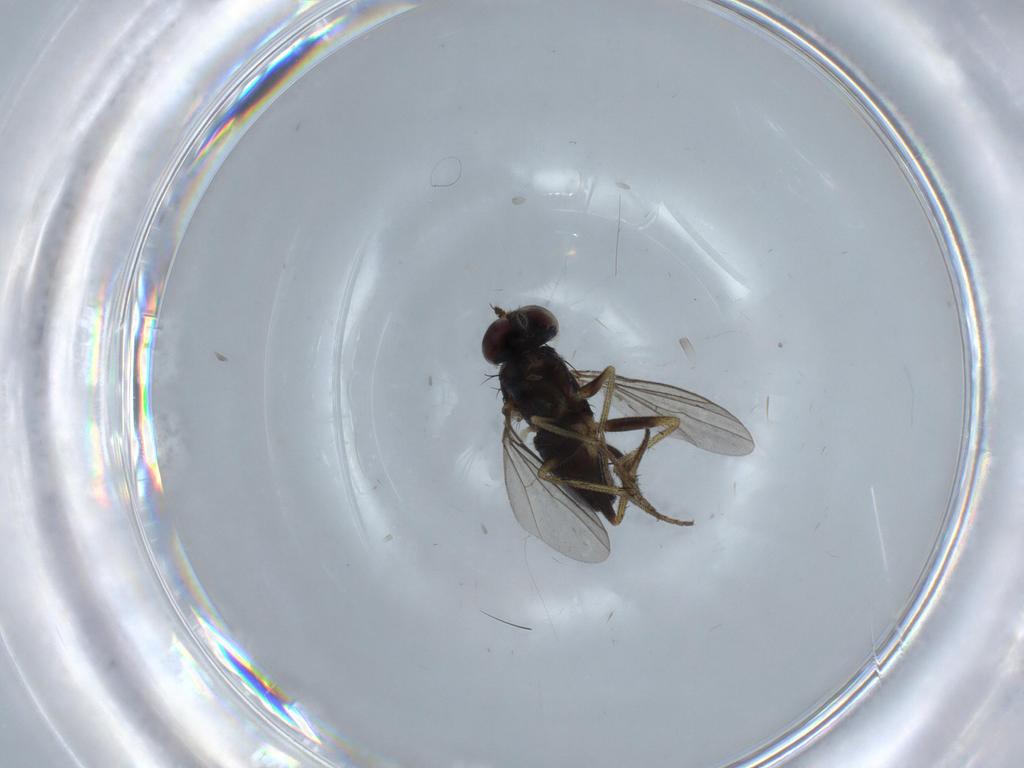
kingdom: Animalia
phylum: Arthropoda
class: Insecta
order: Diptera
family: Dolichopodidae
